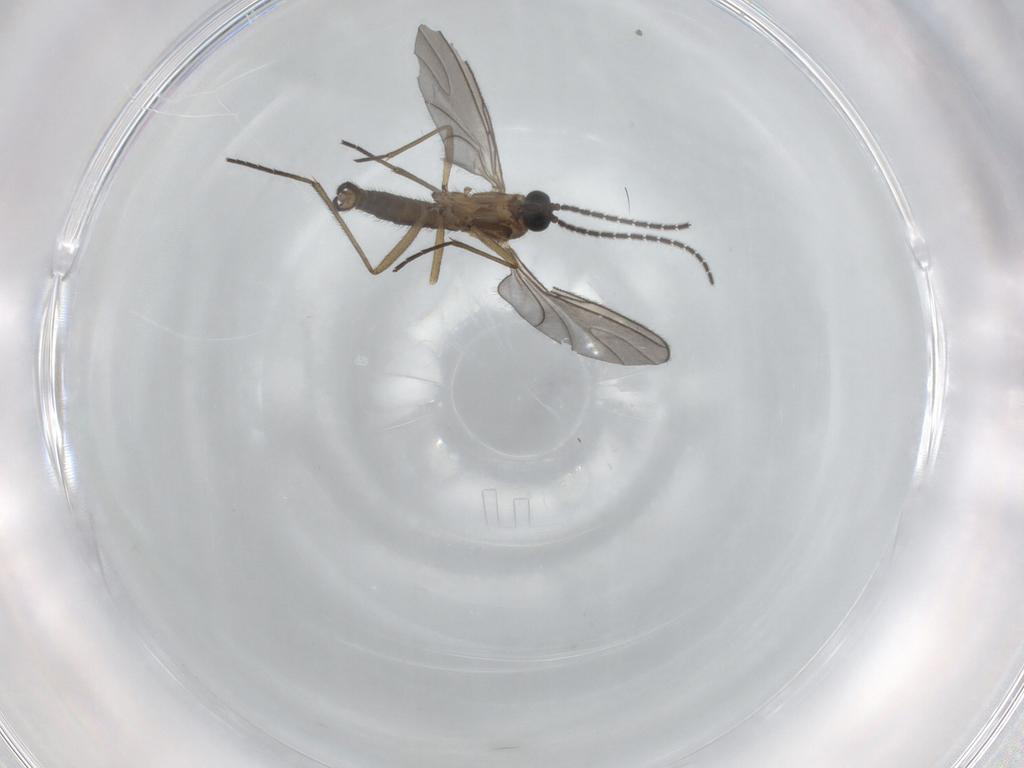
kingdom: Animalia
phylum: Arthropoda
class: Insecta
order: Diptera
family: Sciaridae
